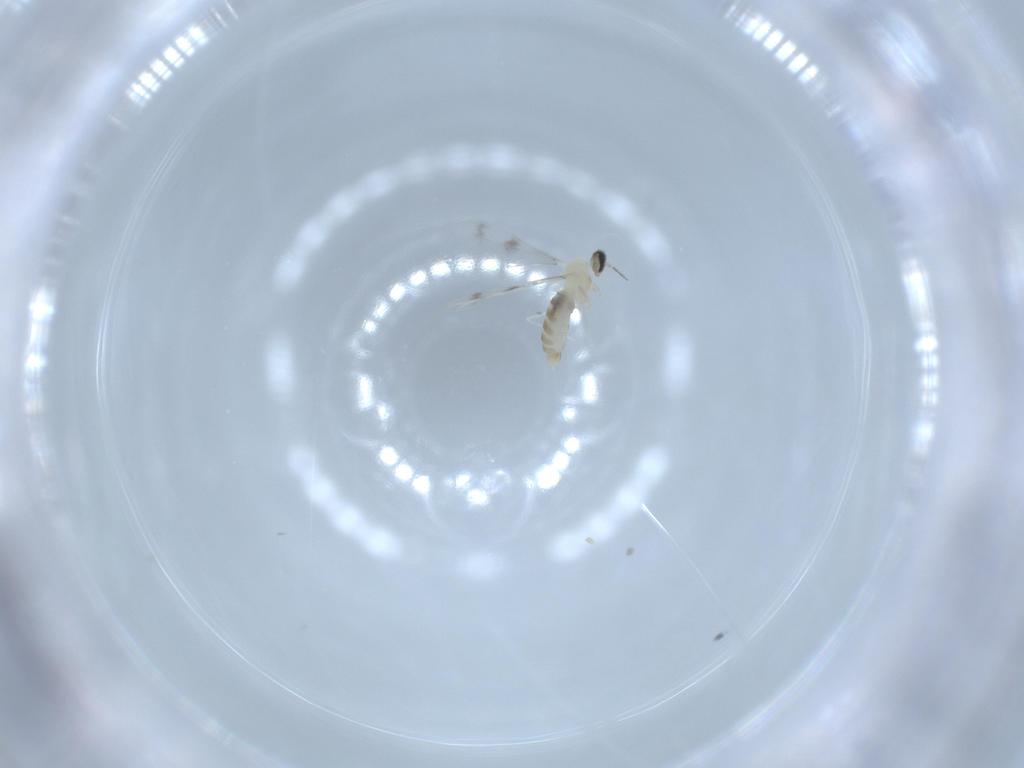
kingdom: Animalia
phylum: Arthropoda
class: Insecta
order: Diptera
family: Cecidomyiidae
